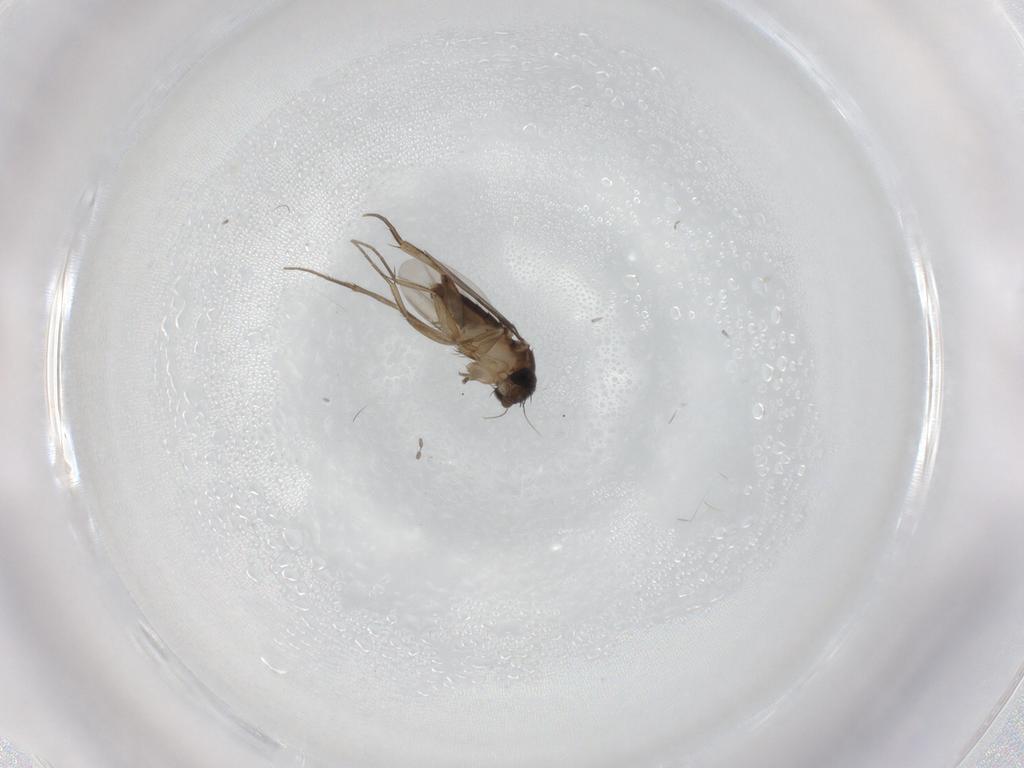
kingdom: Animalia
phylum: Arthropoda
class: Insecta
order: Diptera
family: Phoridae
